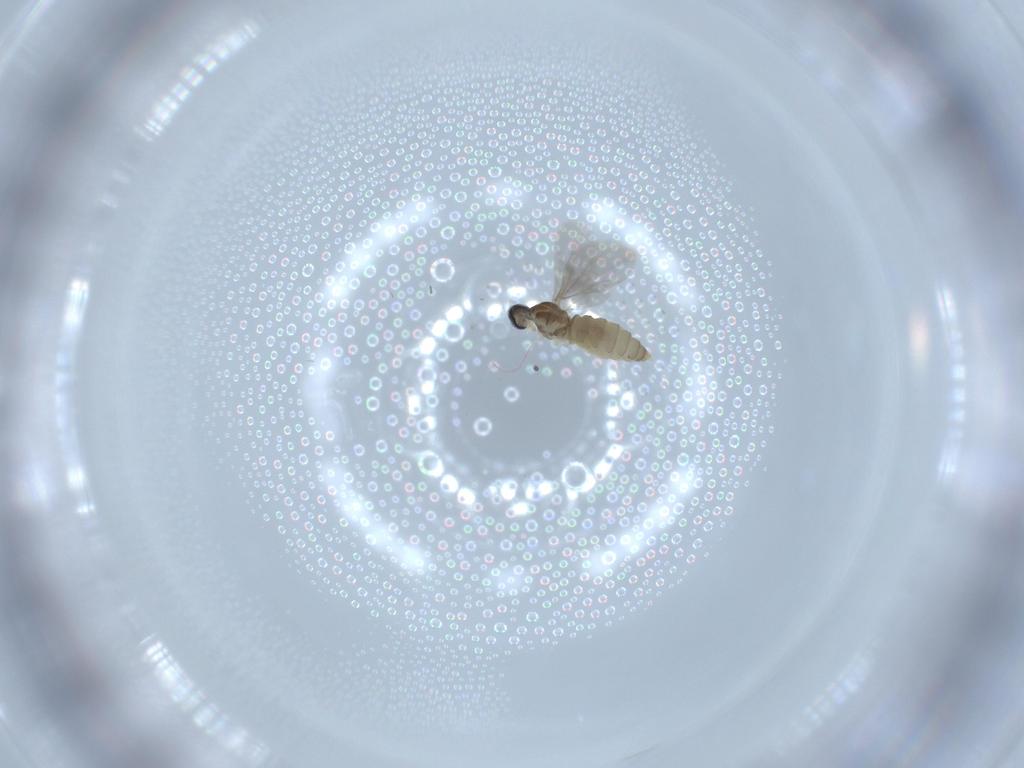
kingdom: Animalia
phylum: Arthropoda
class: Insecta
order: Diptera
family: Cecidomyiidae
